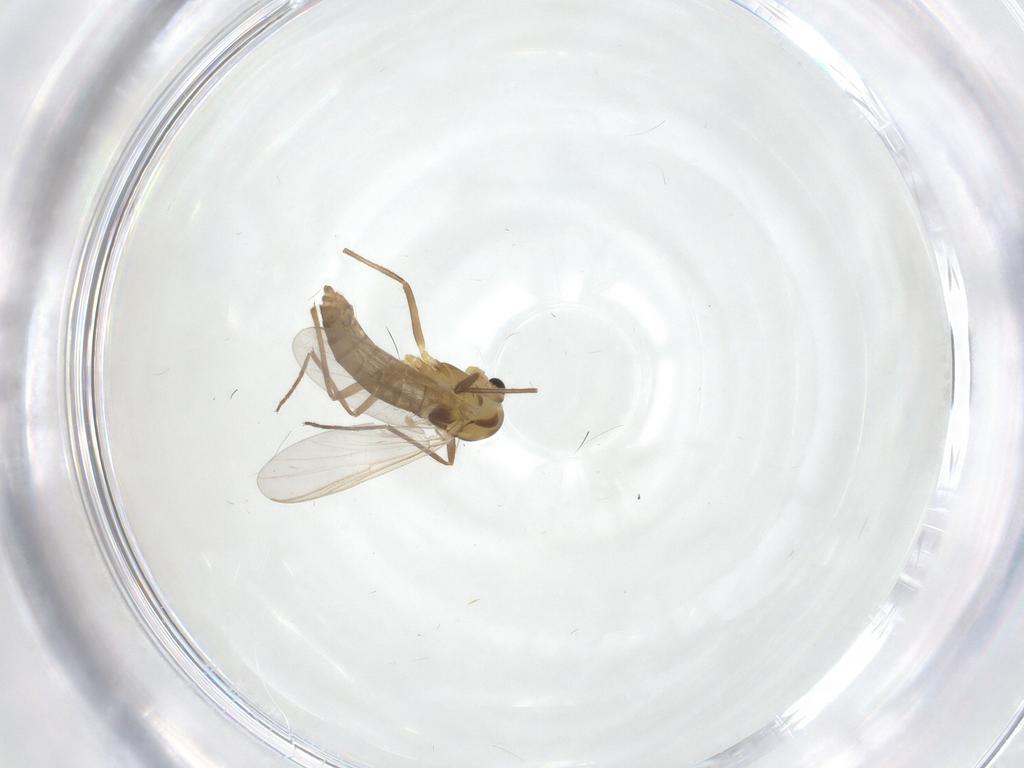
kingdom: Animalia
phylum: Arthropoda
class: Insecta
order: Diptera
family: Chironomidae
